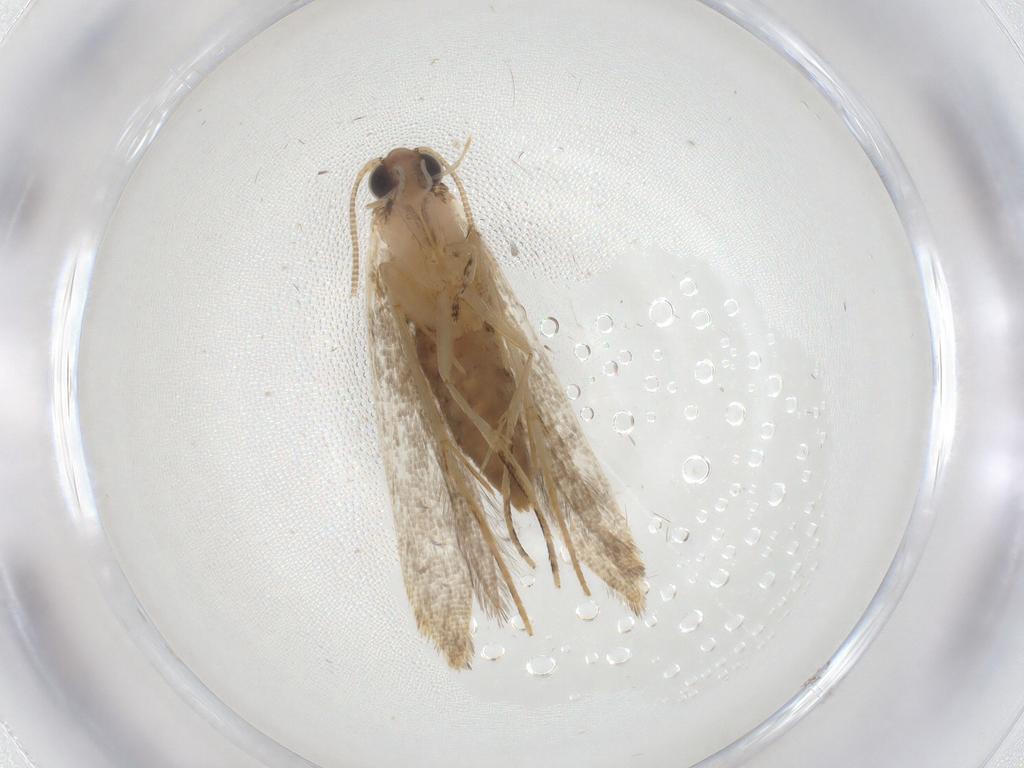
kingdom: Animalia
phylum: Arthropoda
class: Insecta
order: Lepidoptera
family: Tineidae
